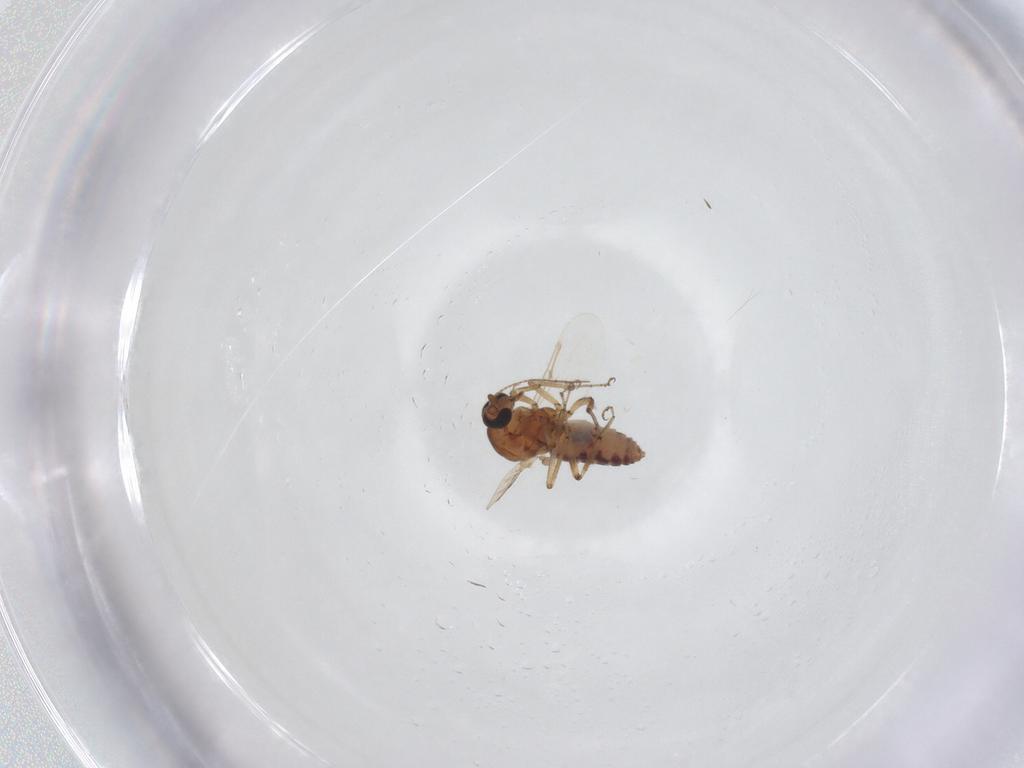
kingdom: Animalia
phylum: Arthropoda
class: Insecta
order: Diptera
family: Ceratopogonidae
